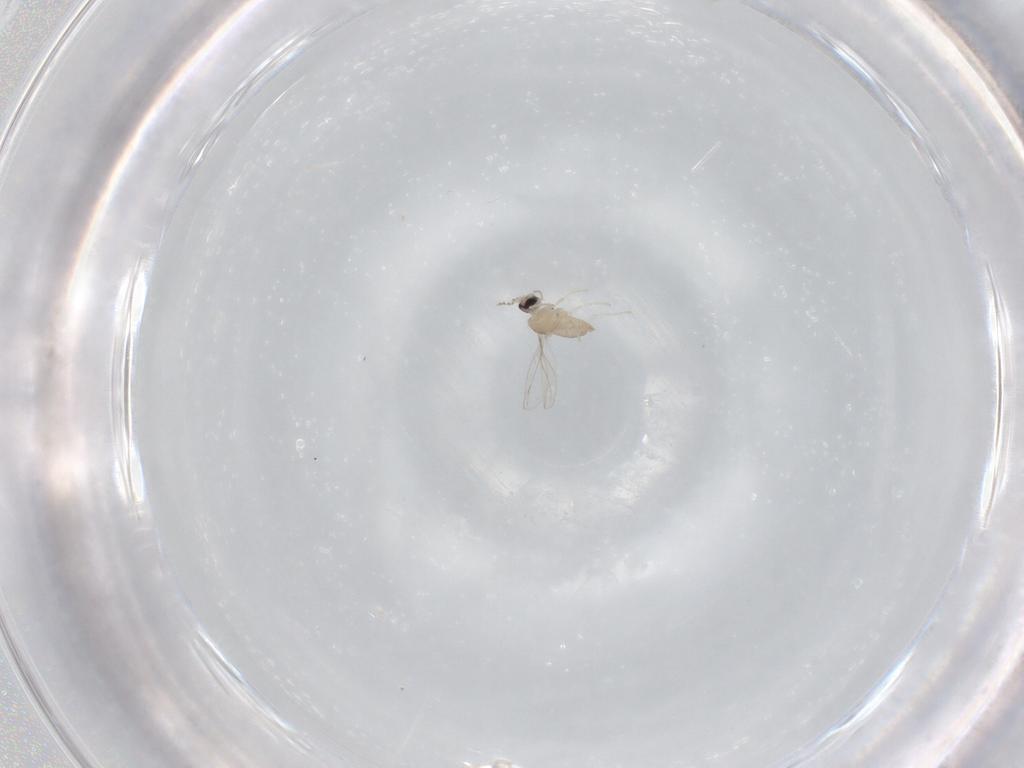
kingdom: Animalia
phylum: Arthropoda
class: Insecta
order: Diptera
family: Cecidomyiidae
